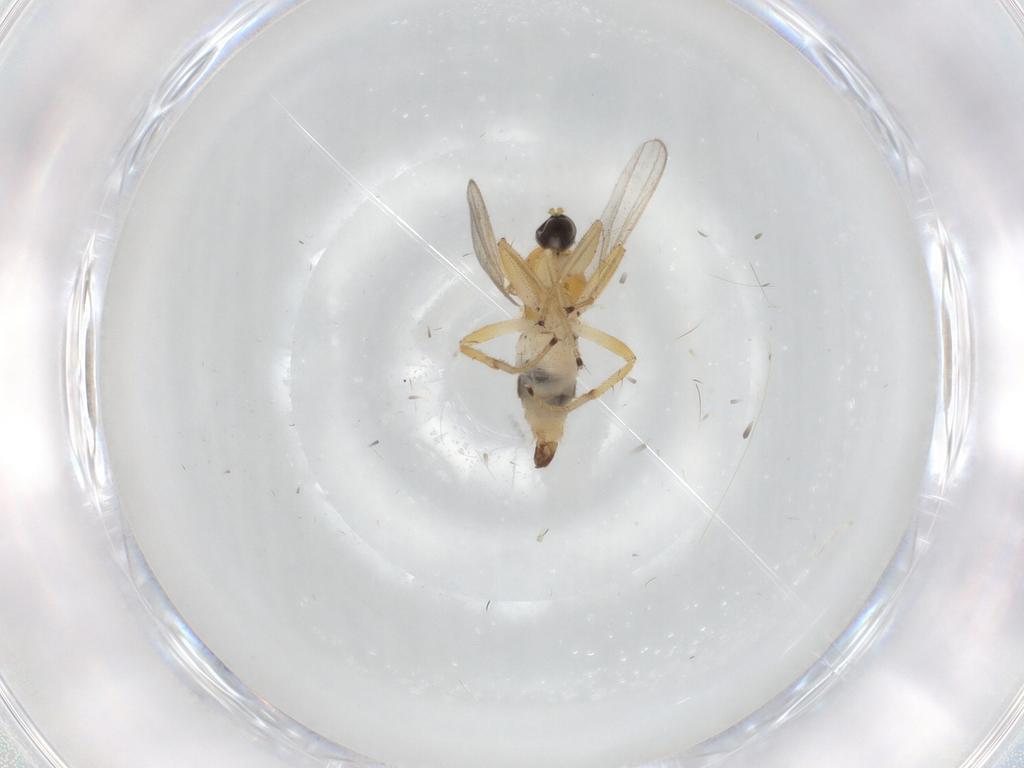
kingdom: Animalia
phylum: Arthropoda
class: Insecta
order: Diptera
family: Hybotidae
